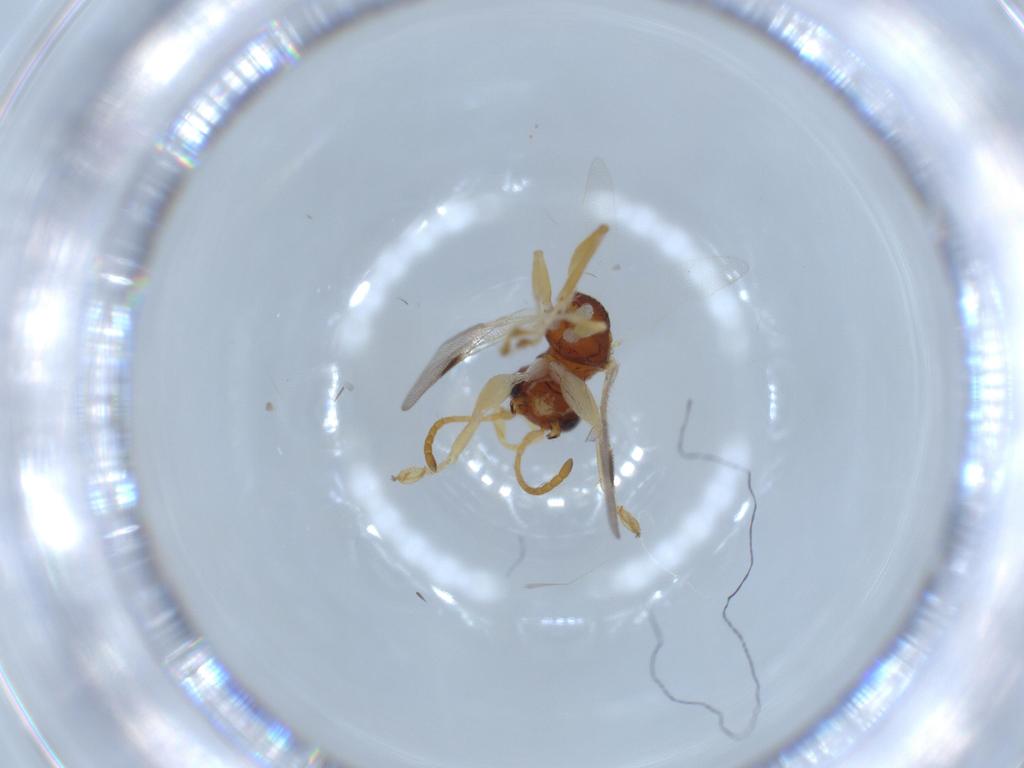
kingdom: Animalia
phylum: Arthropoda
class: Insecta
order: Hymenoptera
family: Dryinidae
